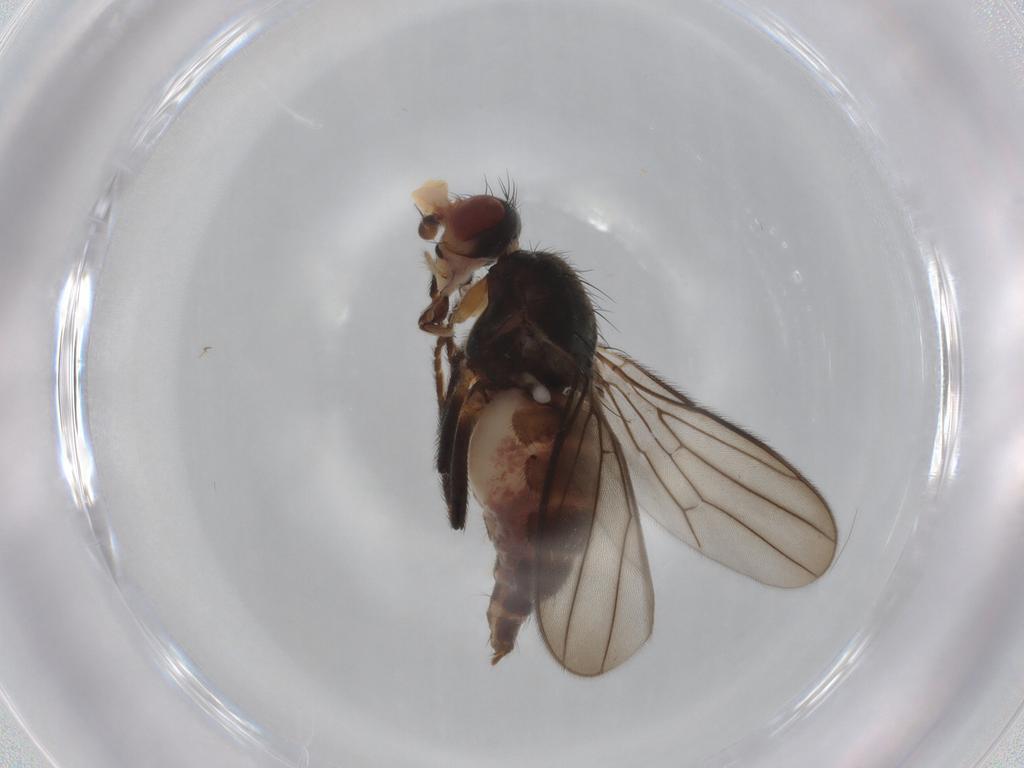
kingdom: Animalia
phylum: Arthropoda
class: Insecta
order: Diptera
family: Chloropidae
